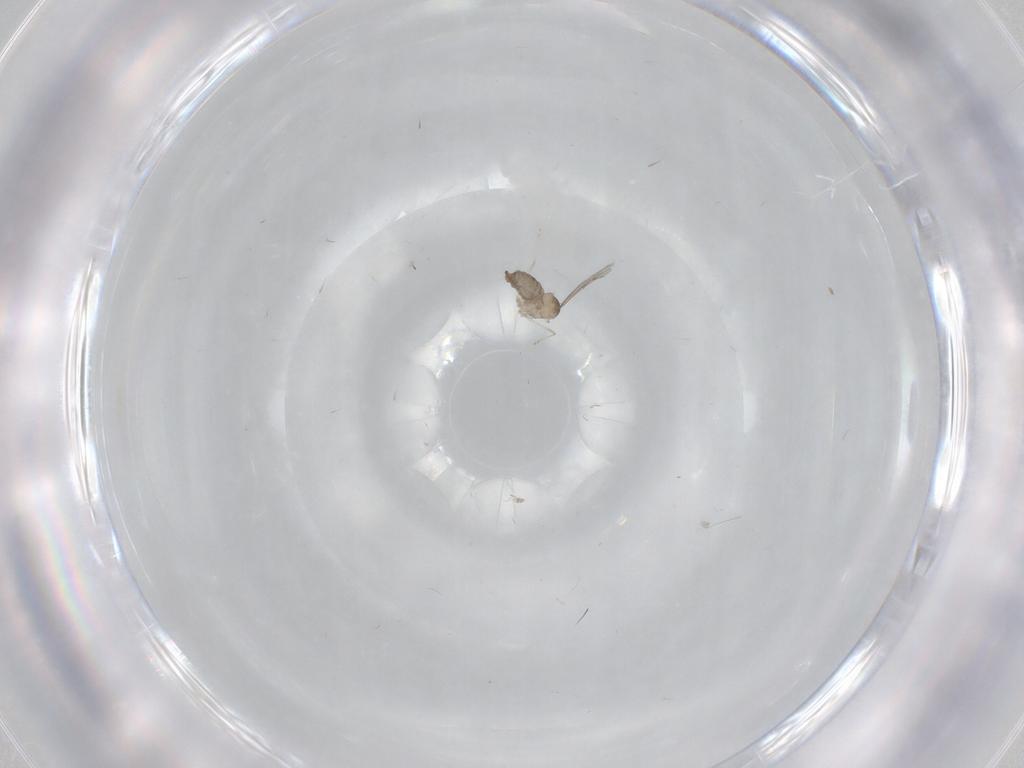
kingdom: Animalia
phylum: Arthropoda
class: Insecta
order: Diptera
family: Cecidomyiidae
